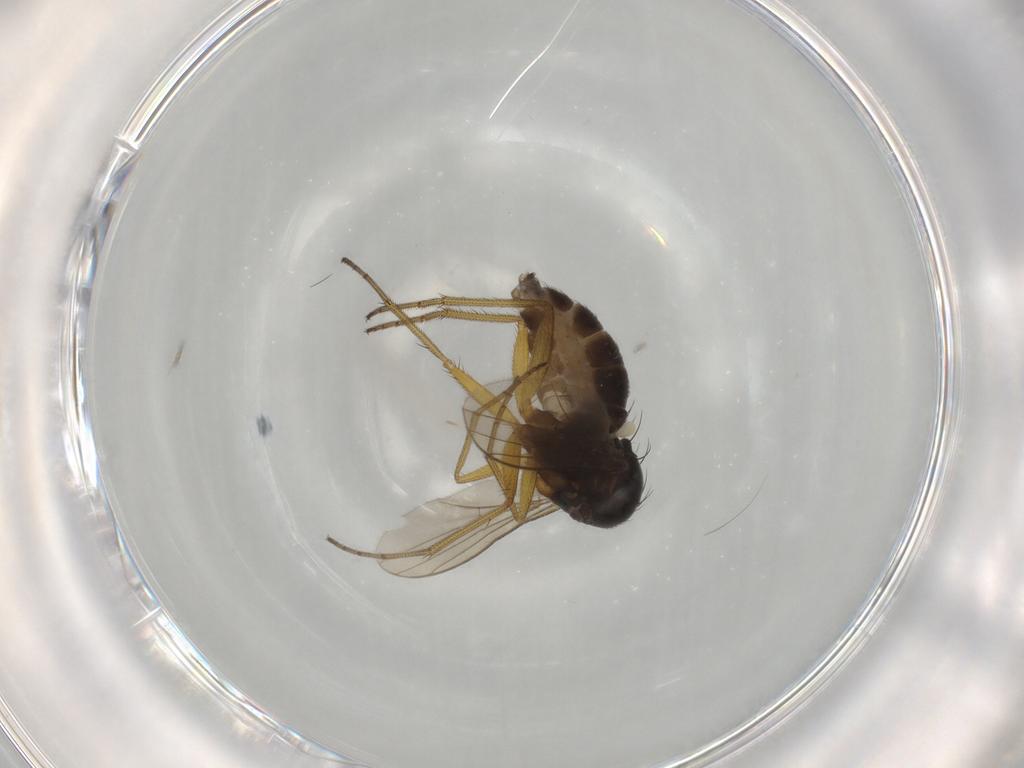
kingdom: Animalia
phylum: Arthropoda
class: Insecta
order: Diptera
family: Dolichopodidae
